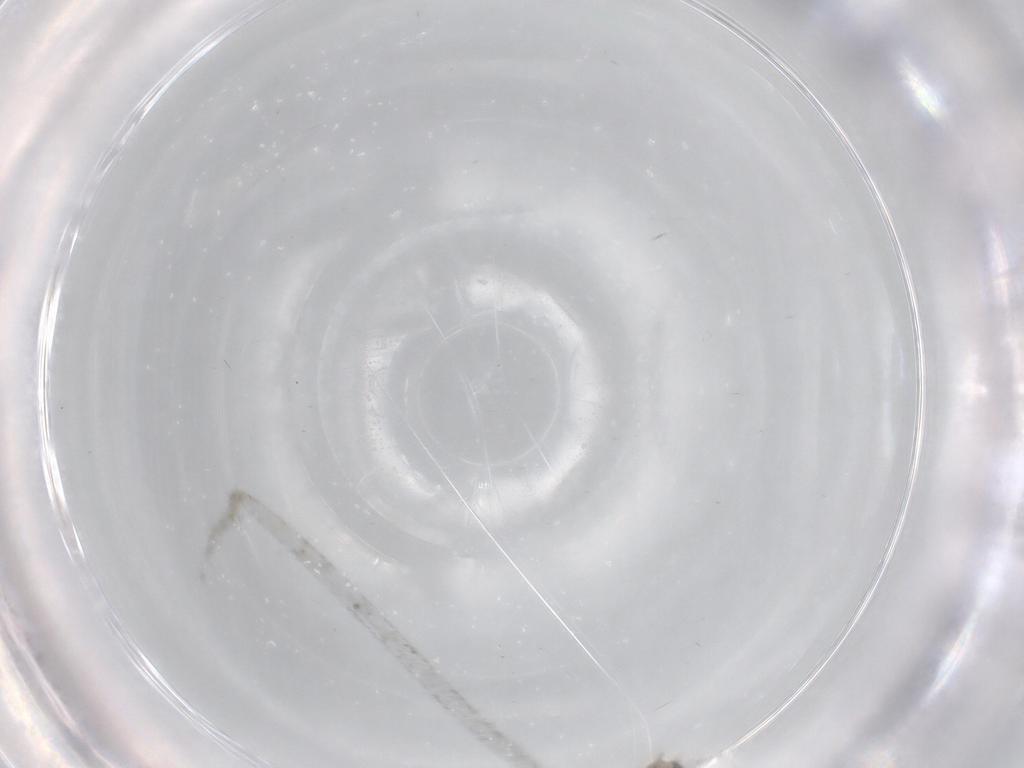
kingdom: Animalia
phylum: Arthropoda
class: Insecta
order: Diptera
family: Cecidomyiidae
